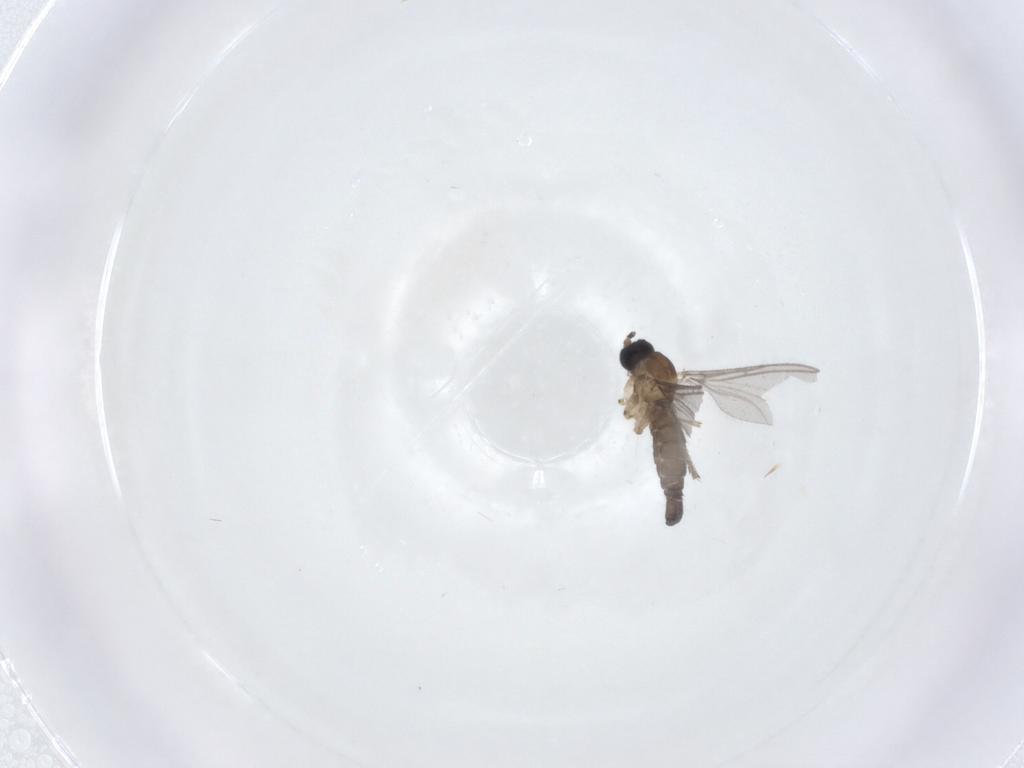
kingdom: Animalia
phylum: Arthropoda
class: Insecta
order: Diptera
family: Sciaridae
